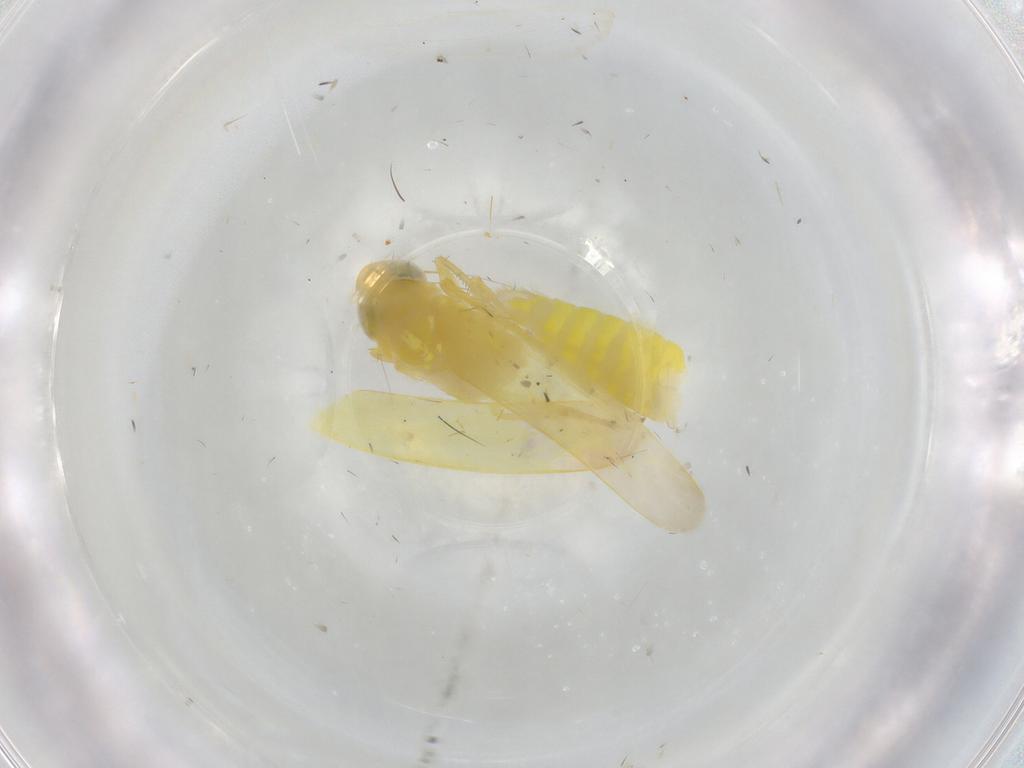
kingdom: Animalia
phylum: Arthropoda
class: Insecta
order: Hemiptera
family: Cicadellidae
